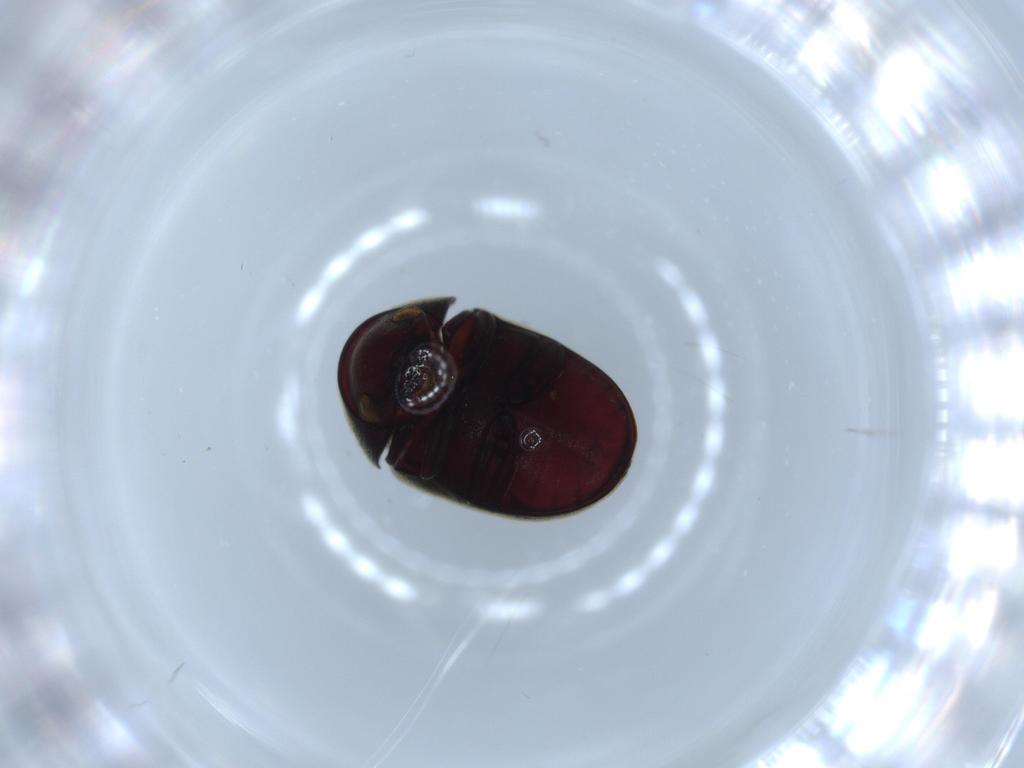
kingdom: Animalia
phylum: Arthropoda
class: Insecta
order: Coleoptera
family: Ptinidae
